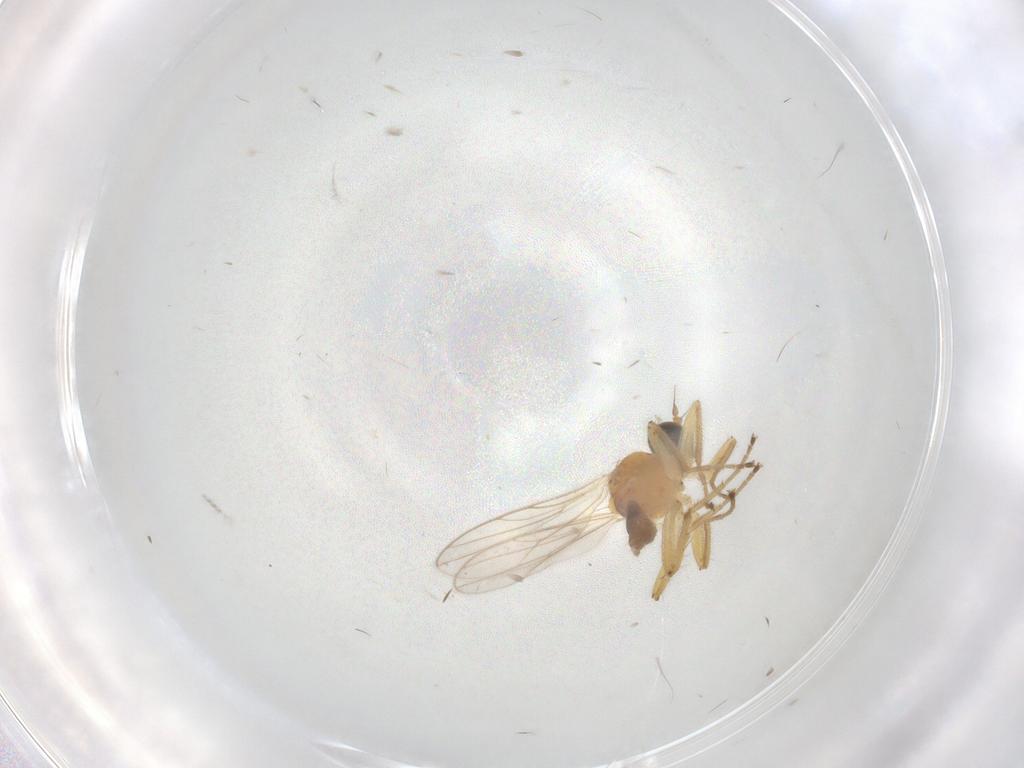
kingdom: Animalia
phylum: Arthropoda
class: Insecta
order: Diptera
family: Hybotidae
